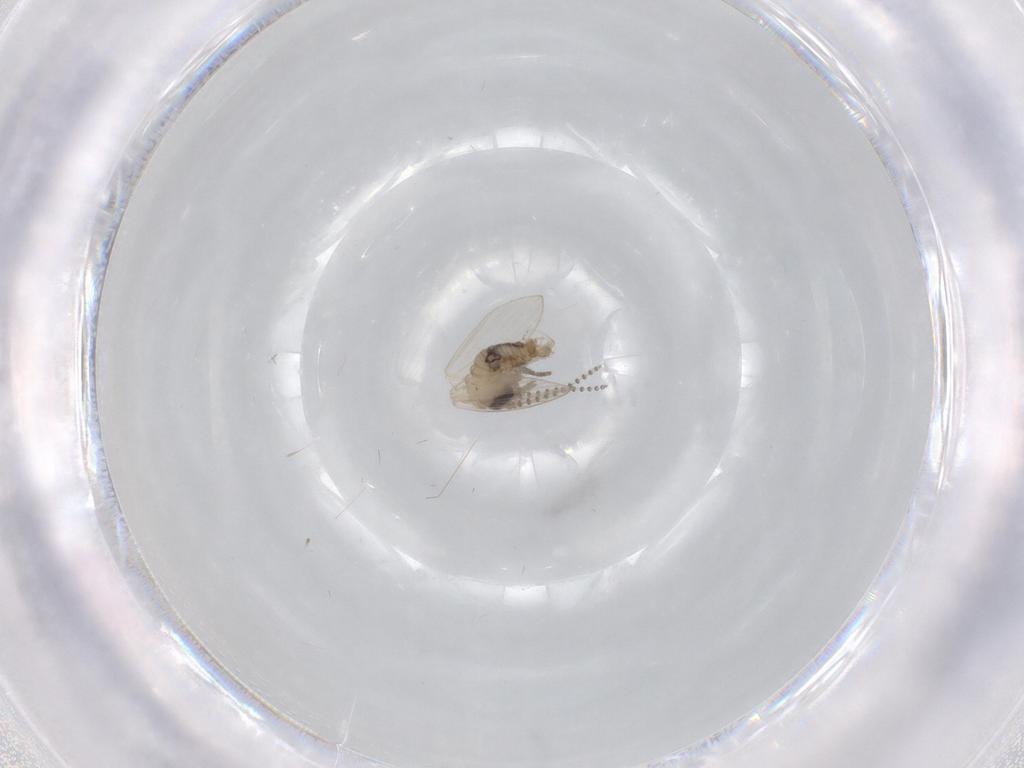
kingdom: Animalia
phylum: Arthropoda
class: Insecta
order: Diptera
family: Psychodidae
